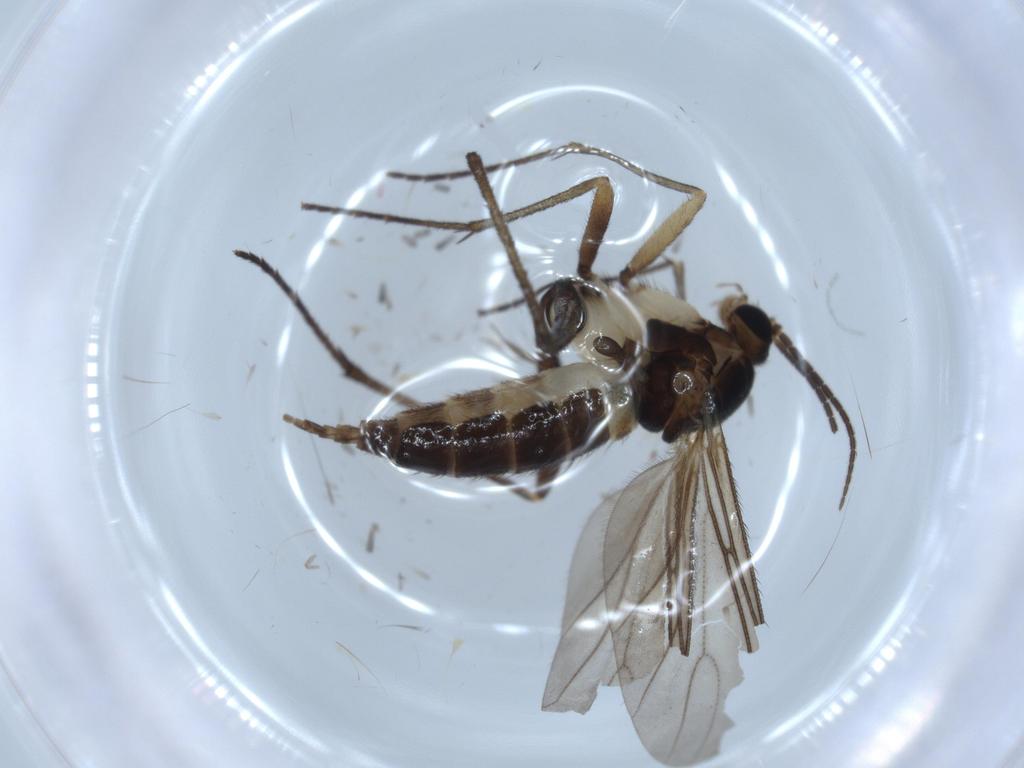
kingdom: Animalia
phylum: Arthropoda
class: Insecta
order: Diptera
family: Sciaridae
